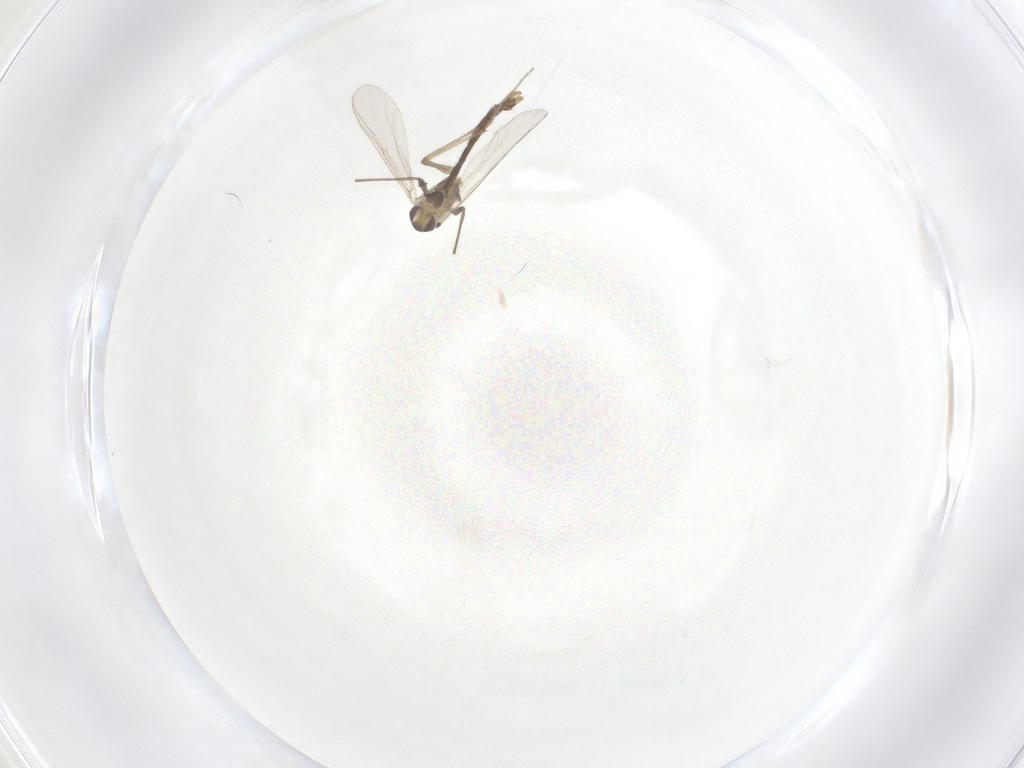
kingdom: Animalia
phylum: Arthropoda
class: Insecta
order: Diptera
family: Chironomidae
